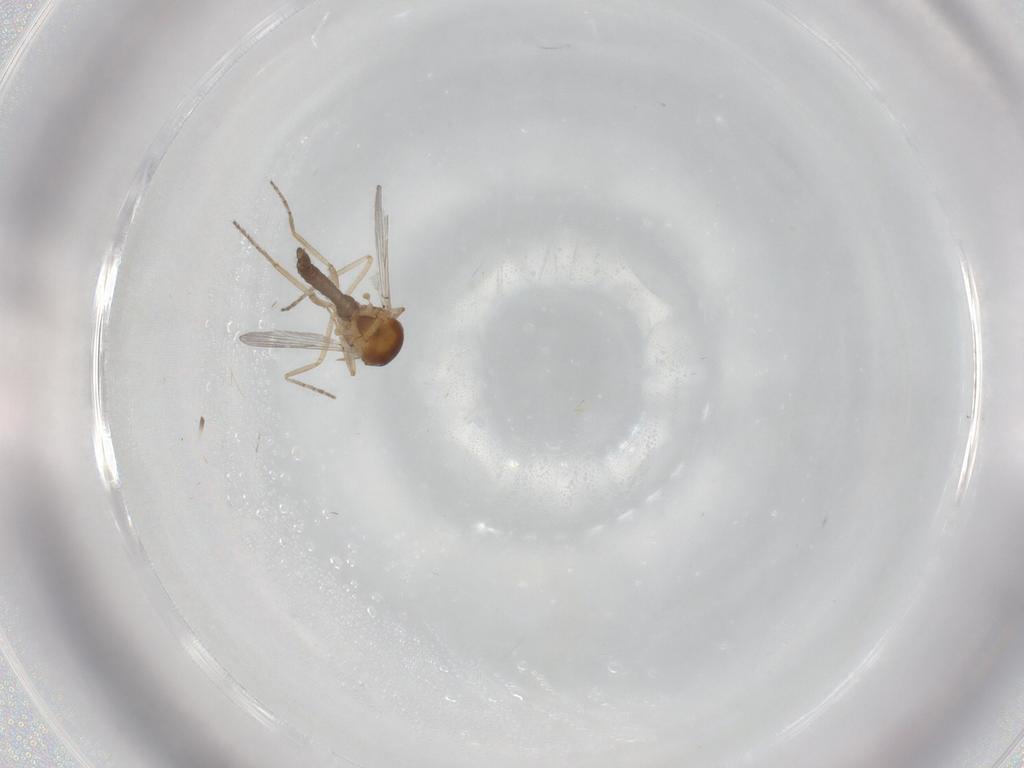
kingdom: Animalia
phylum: Arthropoda
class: Insecta
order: Diptera
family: Ceratopogonidae
